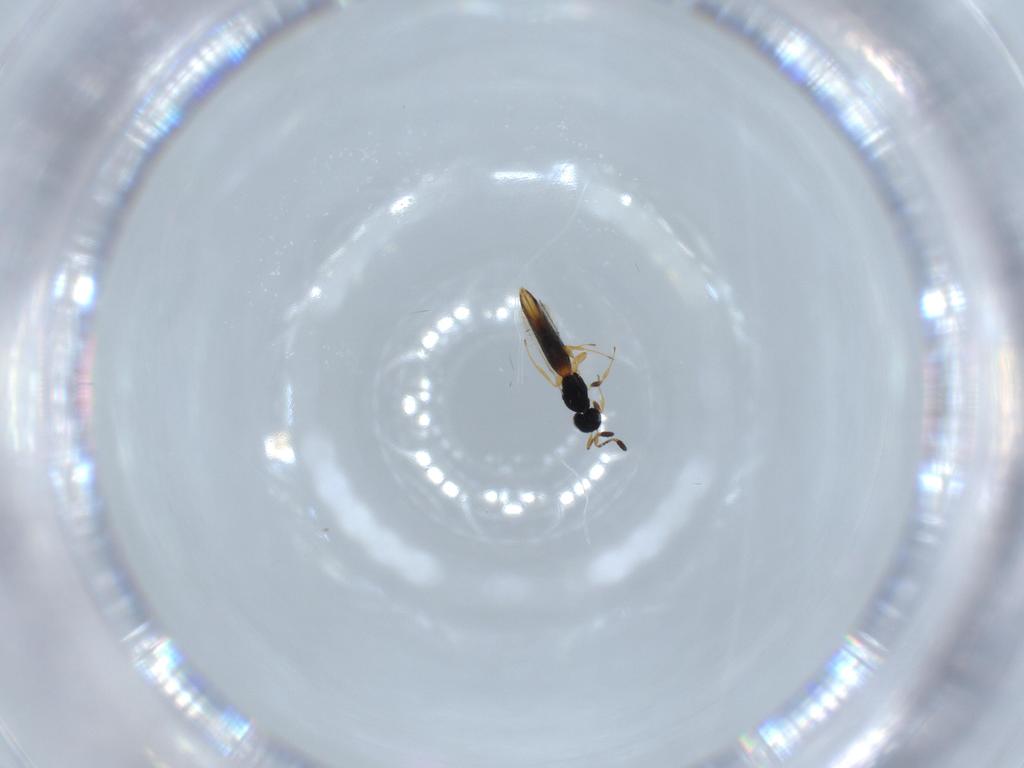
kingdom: Animalia
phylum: Arthropoda
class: Insecta
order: Hymenoptera
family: Scelionidae
